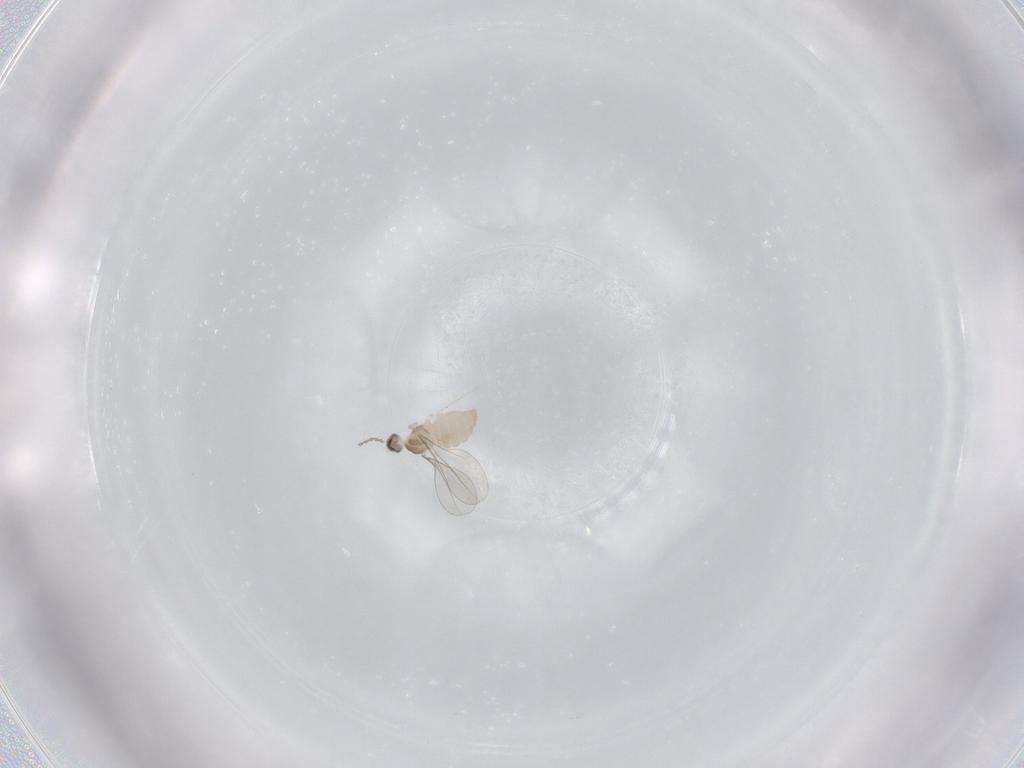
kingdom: Animalia
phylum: Arthropoda
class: Insecta
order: Diptera
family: Cecidomyiidae
